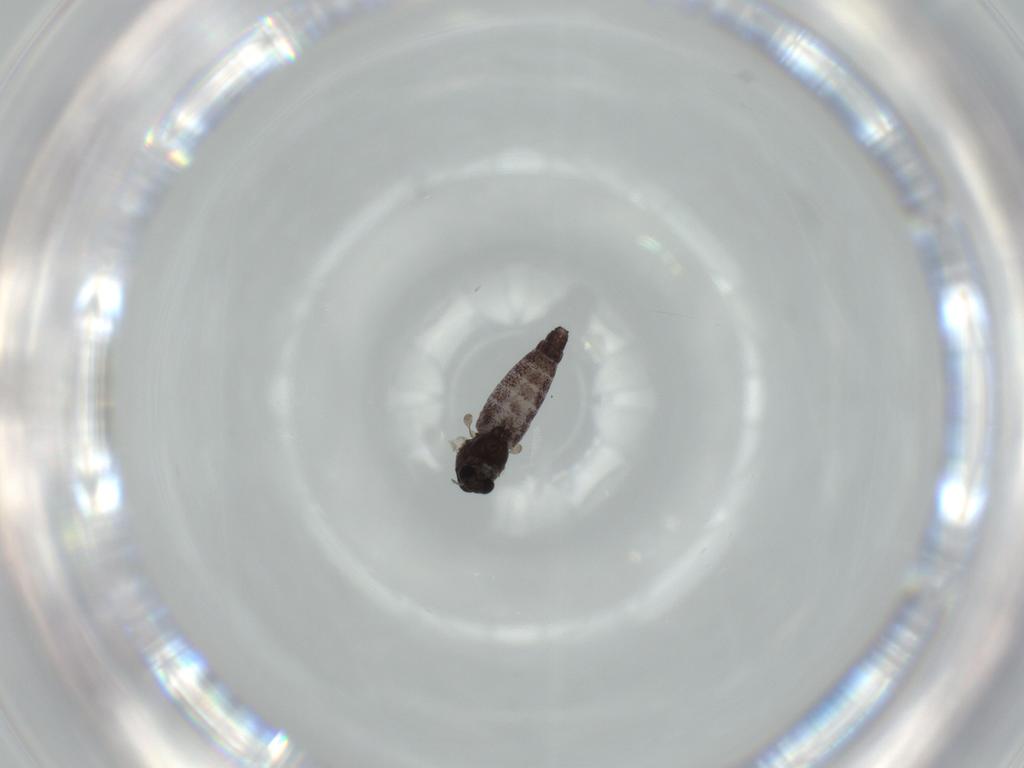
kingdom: Animalia
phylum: Arthropoda
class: Insecta
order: Diptera
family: Chironomidae
